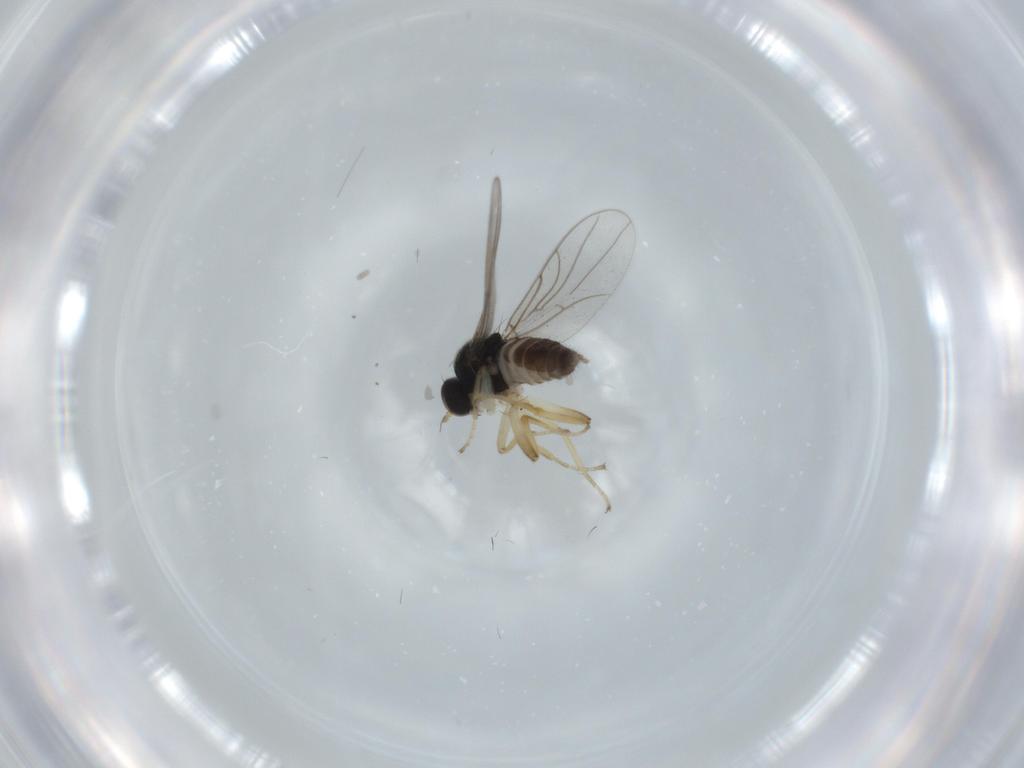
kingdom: Animalia
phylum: Arthropoda
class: Insecta
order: Diptera
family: Hybotidae
